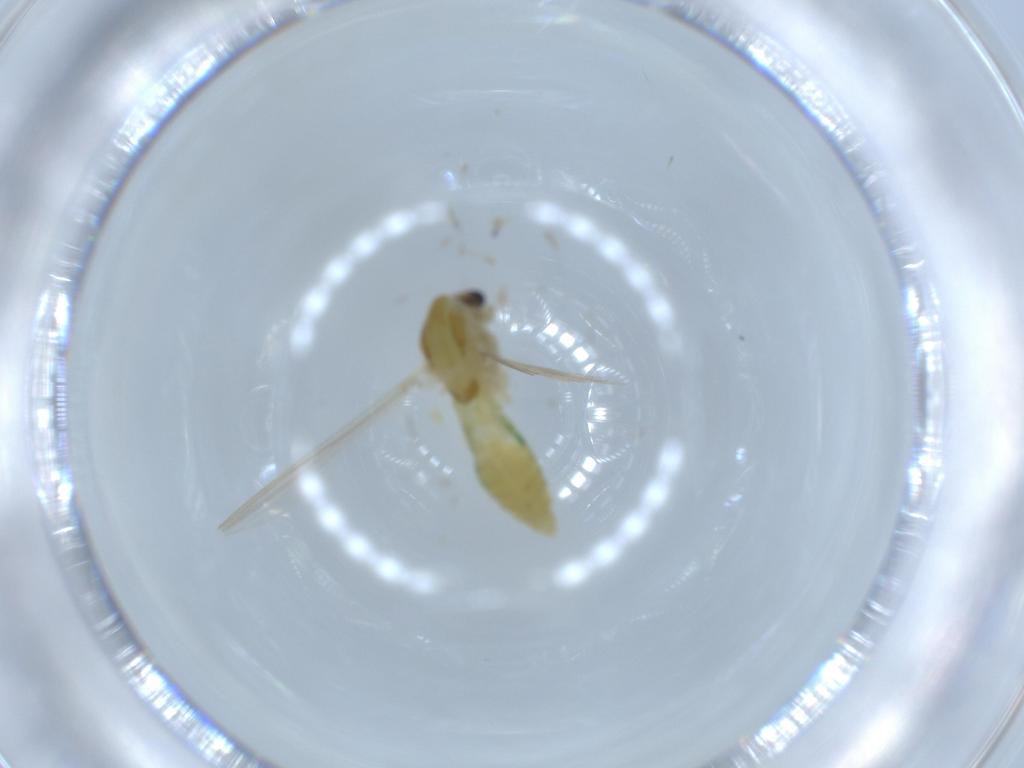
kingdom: Animalia
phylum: Arthropoda
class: Insecta
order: Diptera
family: Chironomidae
